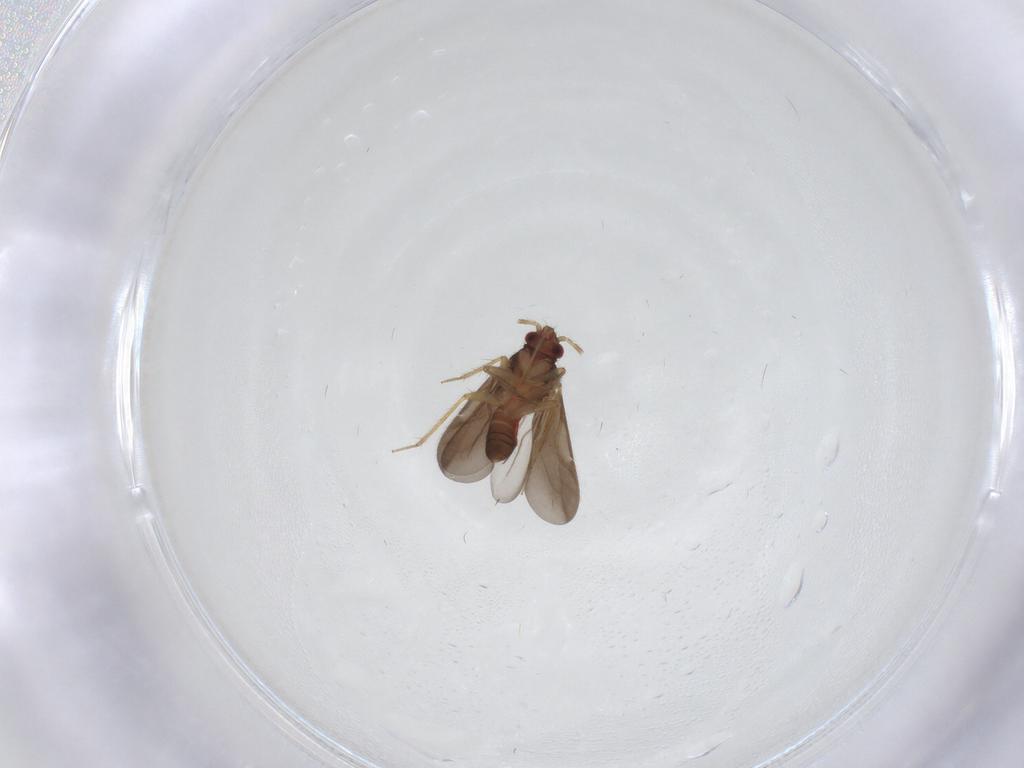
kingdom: Animalia
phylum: Arthropoda
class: Insecta
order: Hemiptera
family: Ceratocombidae
